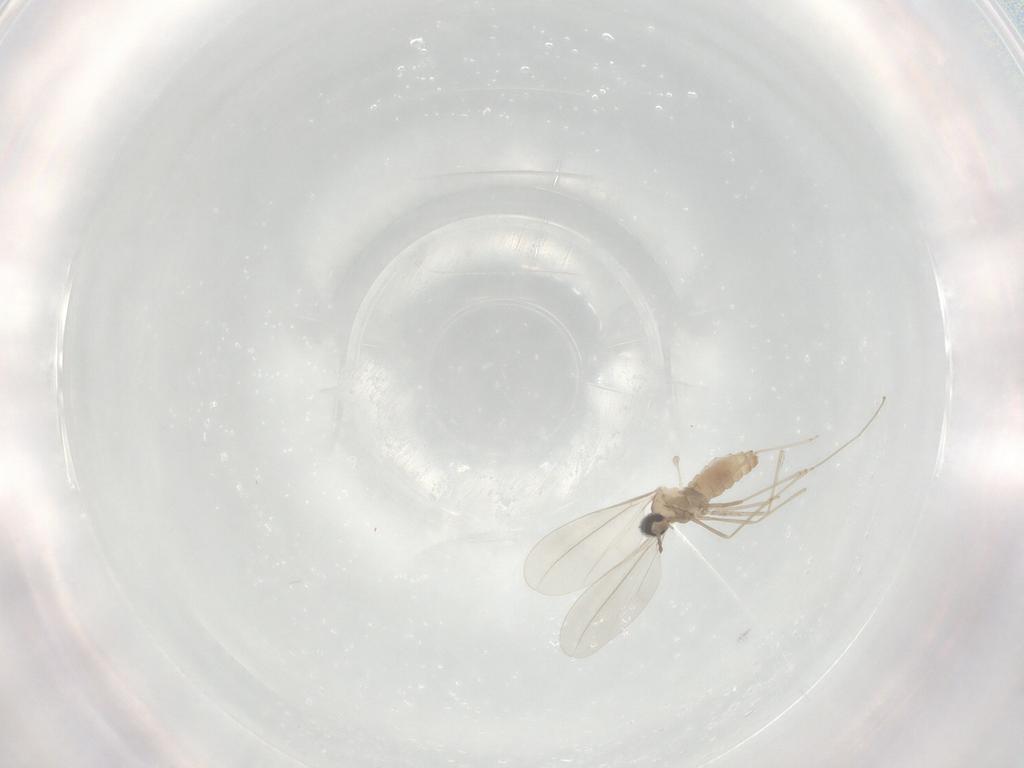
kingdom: Animalia
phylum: Arthropoda
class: Insecta
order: Diptera
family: Cecidomyiidae
